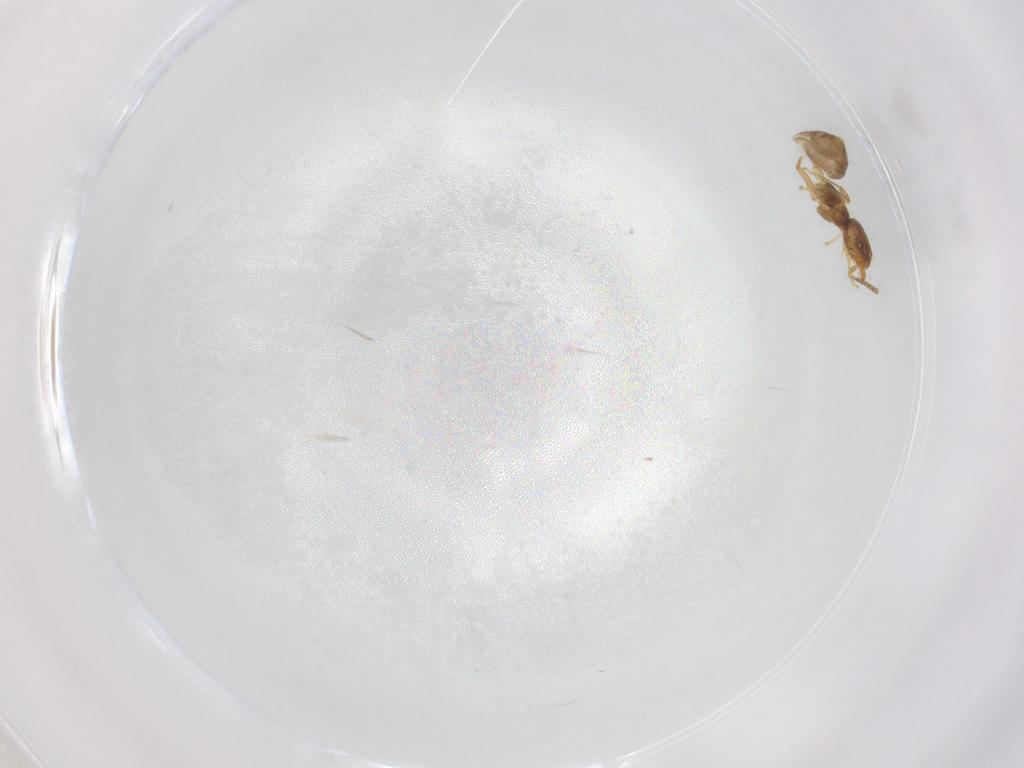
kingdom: Animalia
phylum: Arthropoda
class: Insecta
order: Hymenoptera
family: Formicidae
